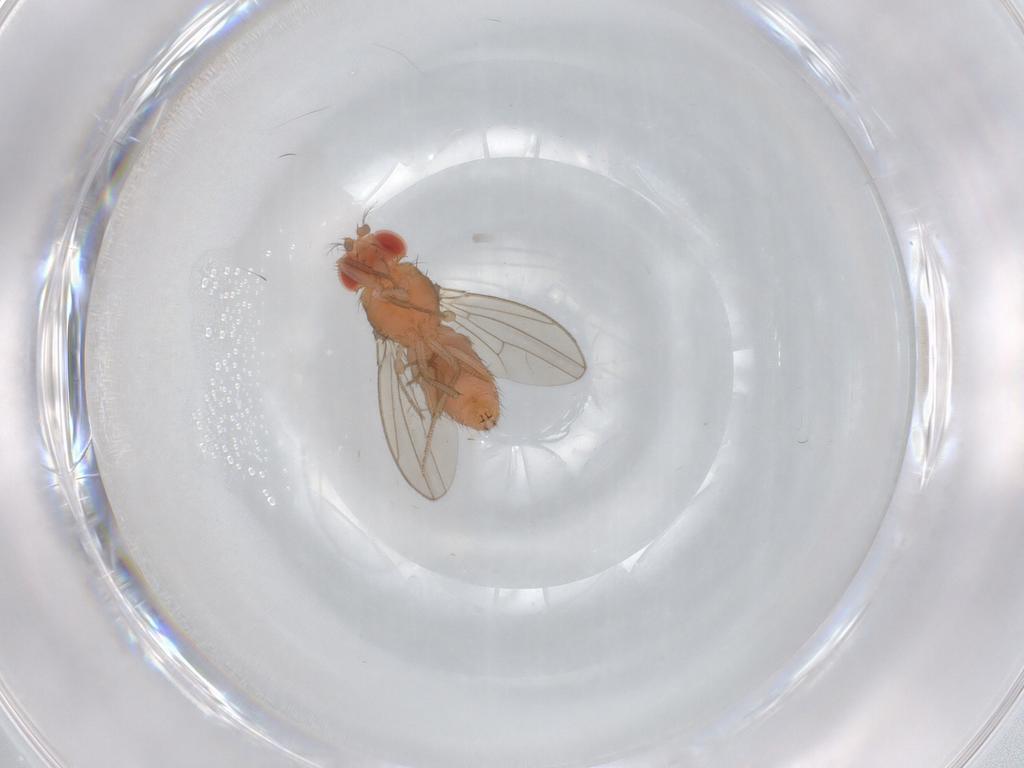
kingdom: Animalia
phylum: Arthropoda
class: Insecta
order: Diptera
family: Drosophilidae
